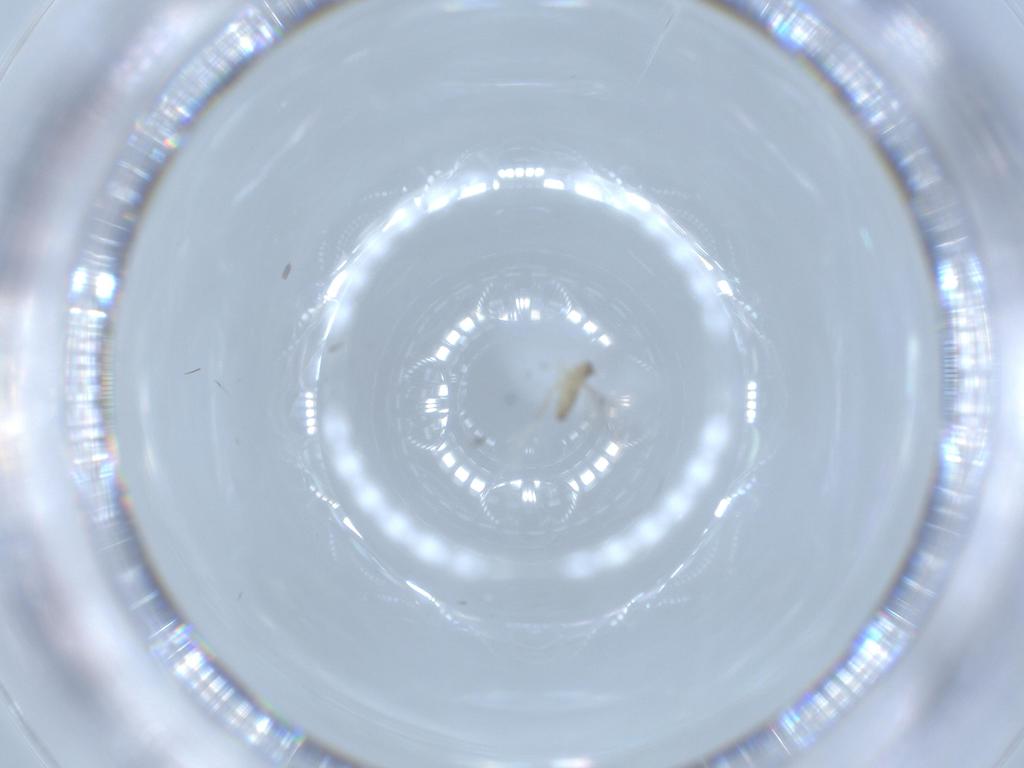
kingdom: Animalia
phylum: Arthropoda
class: Insecta
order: Diptera
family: Cecidomyiidae
